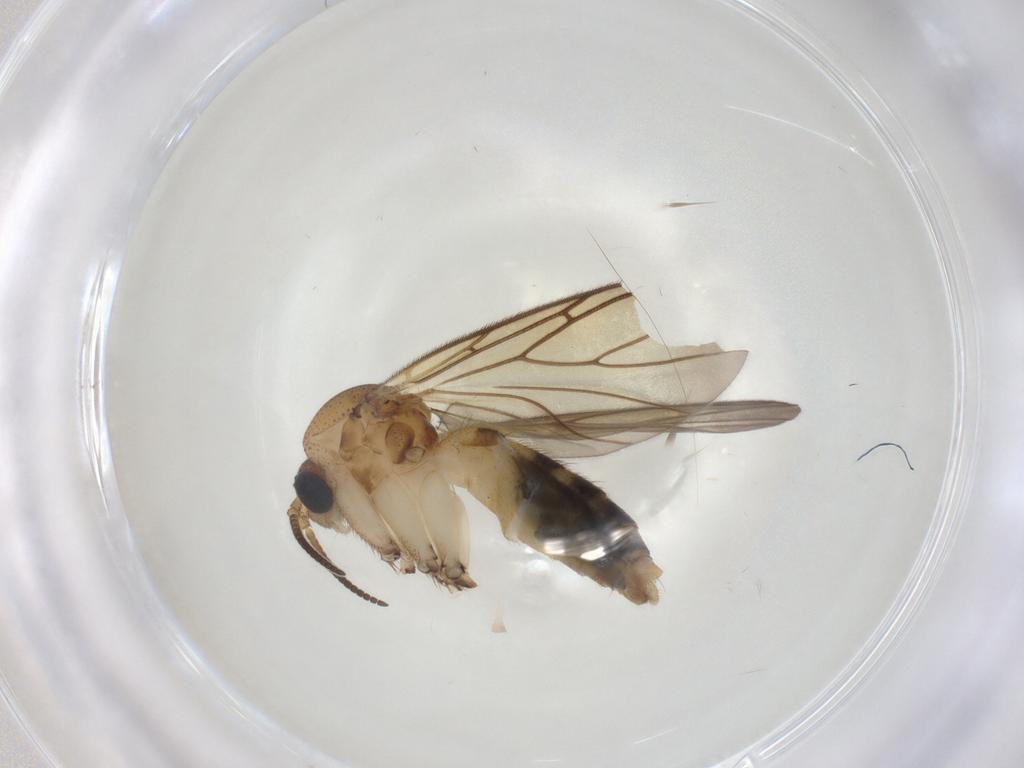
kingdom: Animalia
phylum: Arthropoda
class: Insecta
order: Diptera
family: Mycetophilidae
